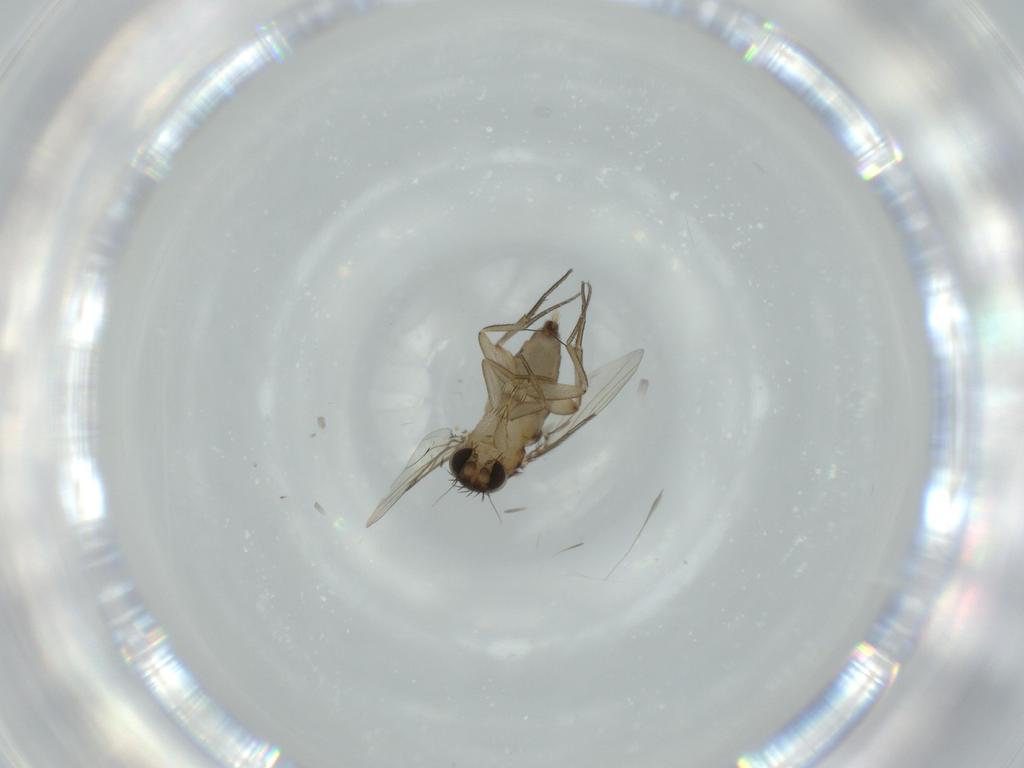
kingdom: Animalia
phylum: Arthropoda
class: Insecta
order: Diptera
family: Phoridae
